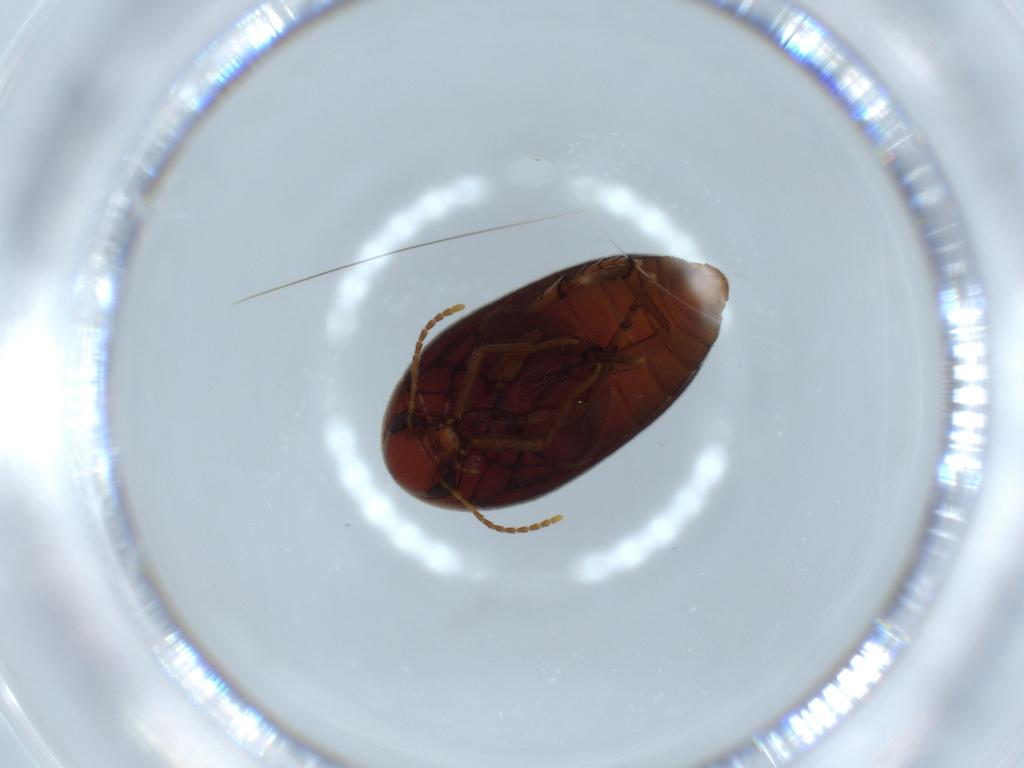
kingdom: Animalia
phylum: Arthropoda
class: Insecta
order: Coleoptera
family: Eucinetidae
